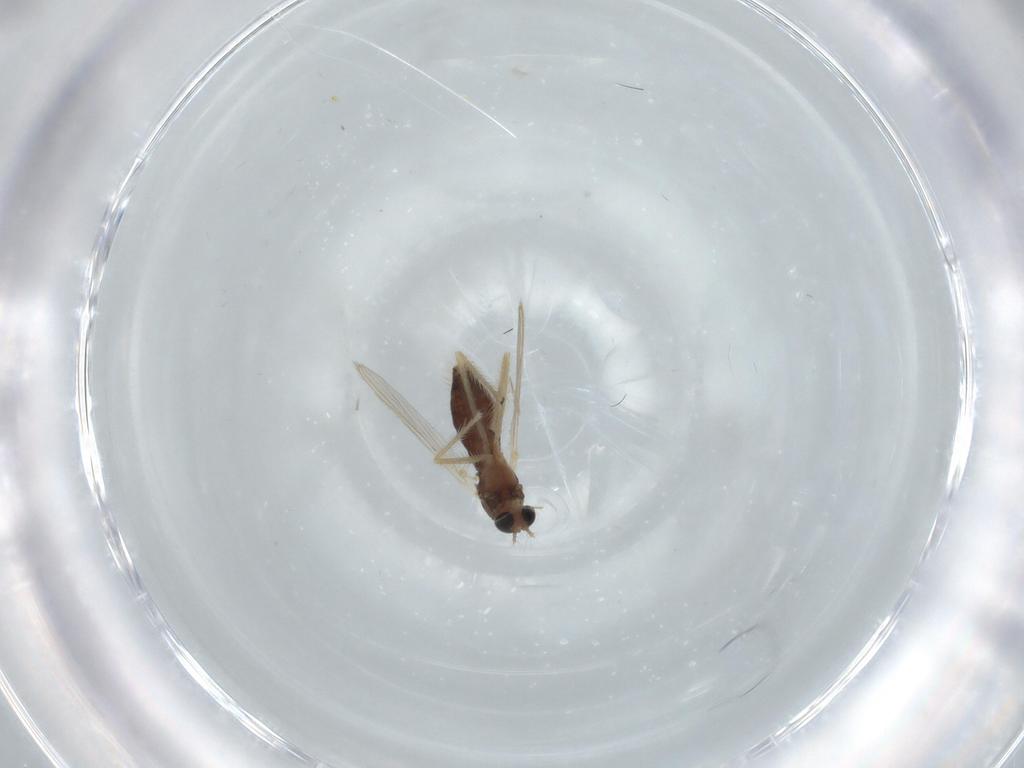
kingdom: Animalia
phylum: Arthropoda
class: Insecta
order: Diptera
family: Chironomidae
